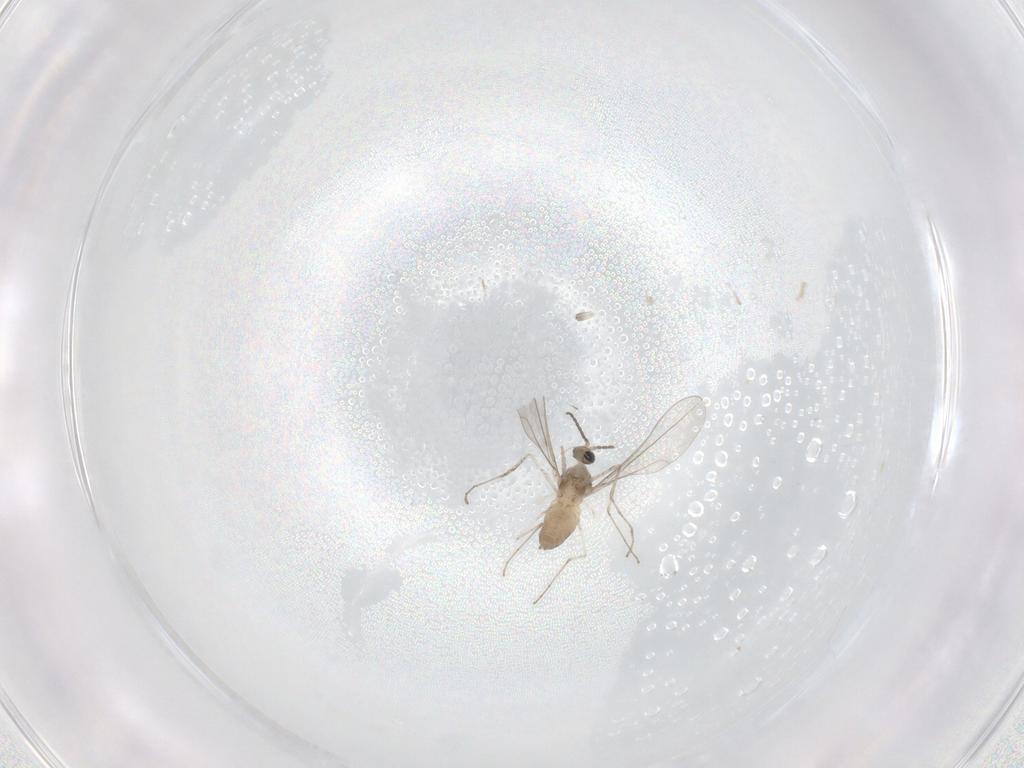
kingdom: Animalia
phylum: Arthropoda
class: Insecta
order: Diptera
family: Cecidomyiidae
